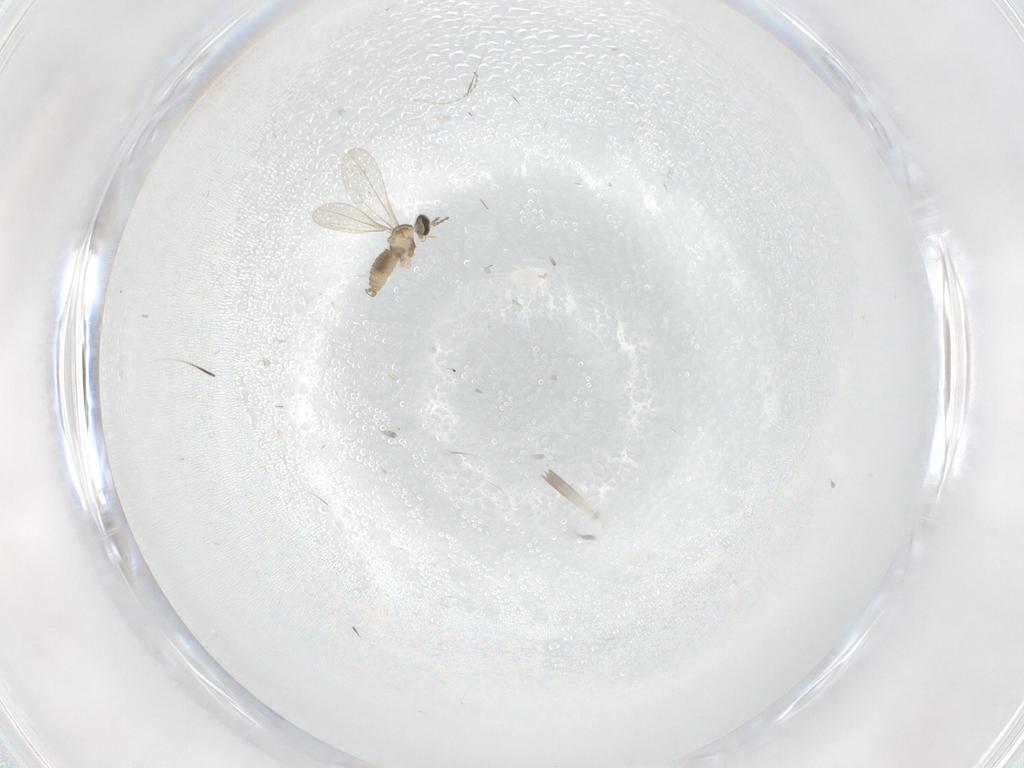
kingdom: Animalia
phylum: Arthropoda
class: Insecta
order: Diptera
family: Cecidomyiidae
